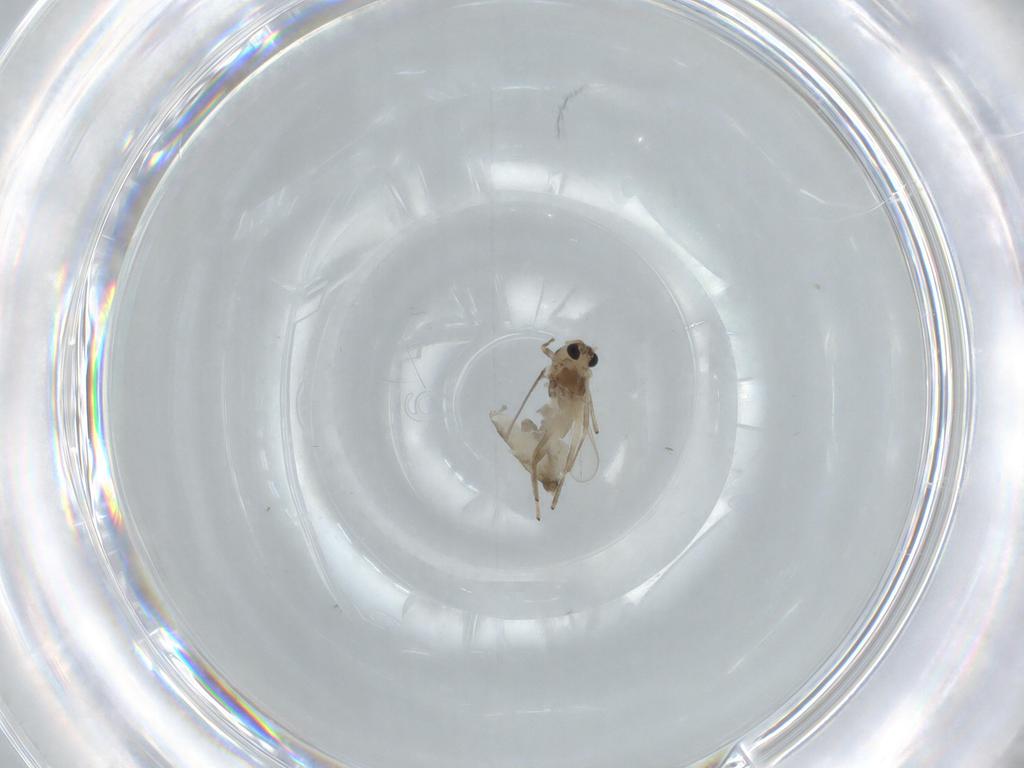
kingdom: Animalia
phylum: Arthropoda
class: Insecta
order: Diptera
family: Chironomidae
